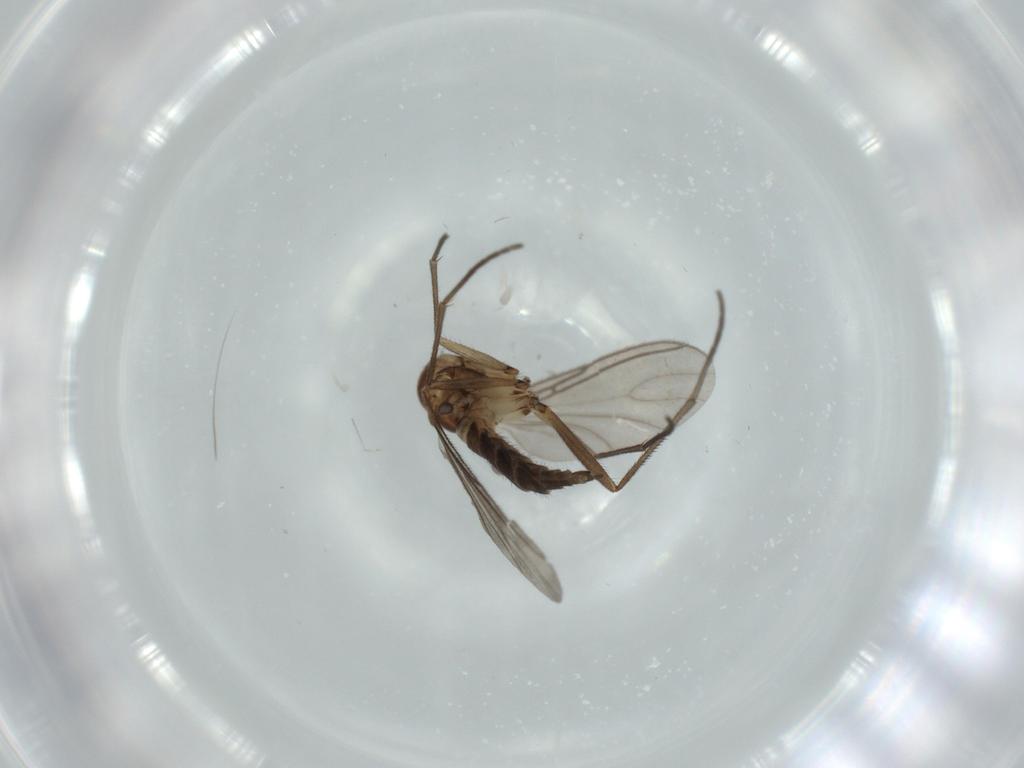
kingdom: Animalia
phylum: Arthropoda
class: Insecta
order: Diptera
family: Sciaridae
